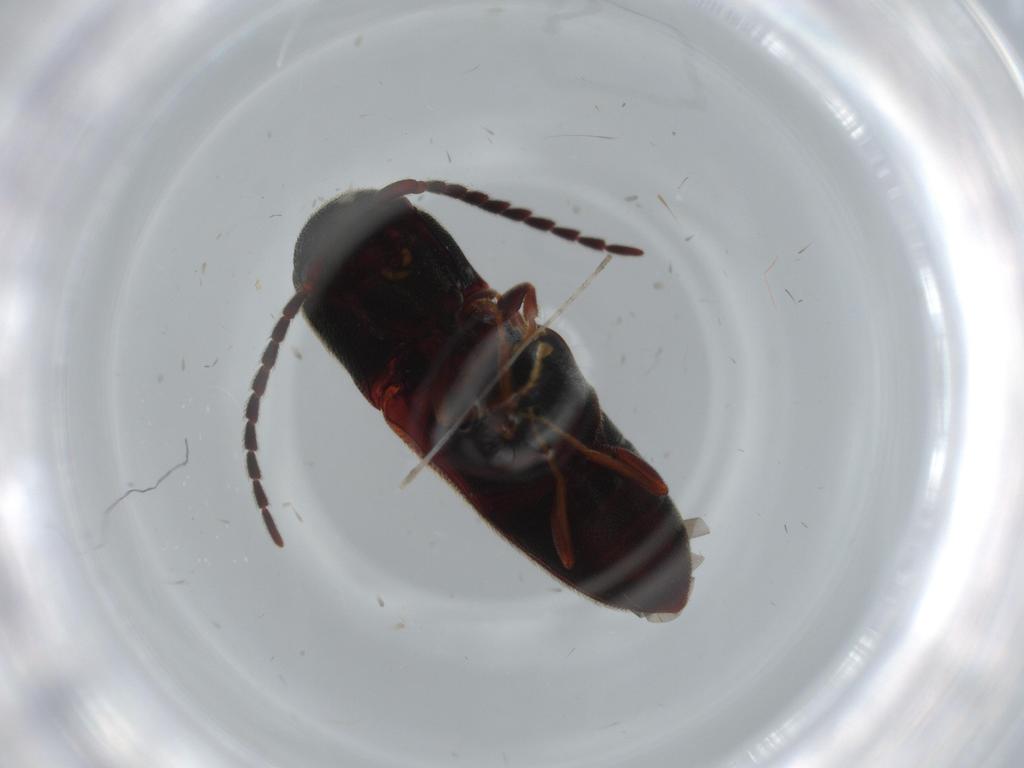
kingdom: Animalia
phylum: Arthropoda
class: Insecta
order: Coleoptera
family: Eucnemidae
